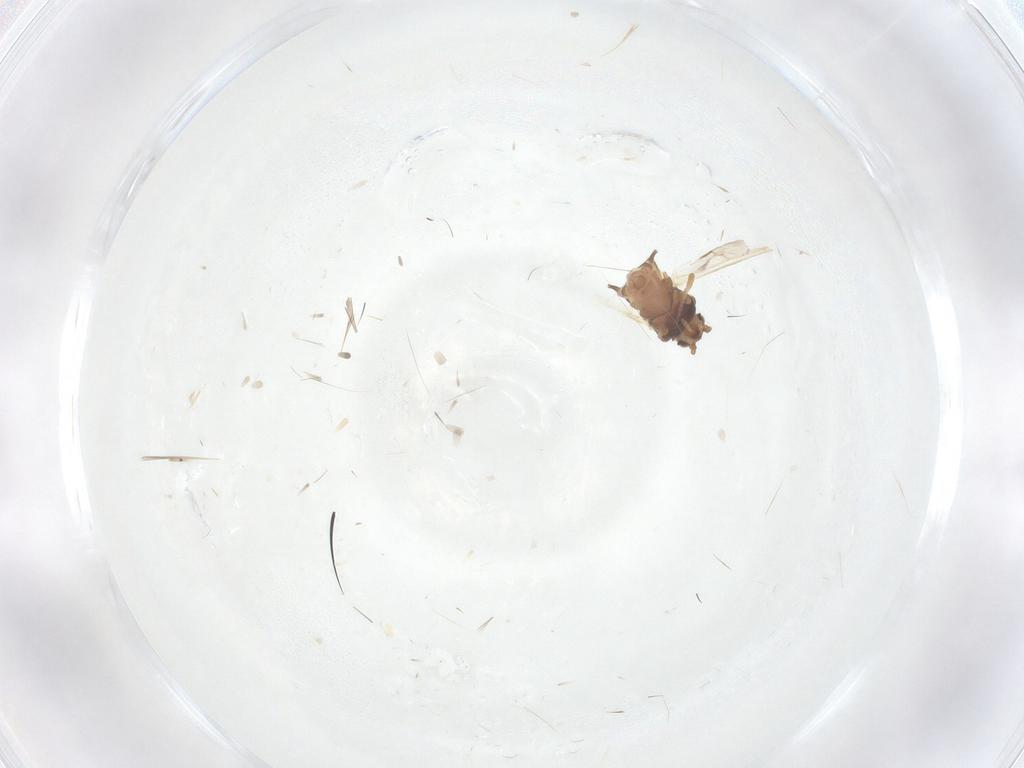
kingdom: Animalia
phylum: Arthropoda
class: Insecta
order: Hemiptera
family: Aphididae
